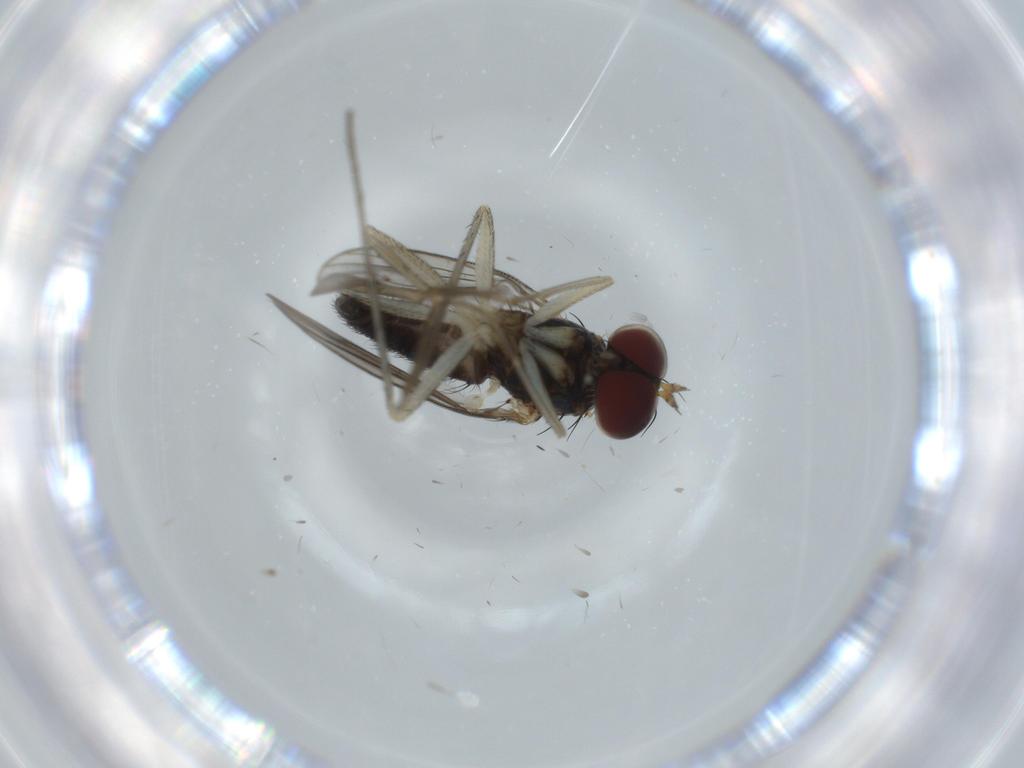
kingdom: Animalia
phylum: Arthropoda
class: Insecta
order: Diptera
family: Dolichopodidae
